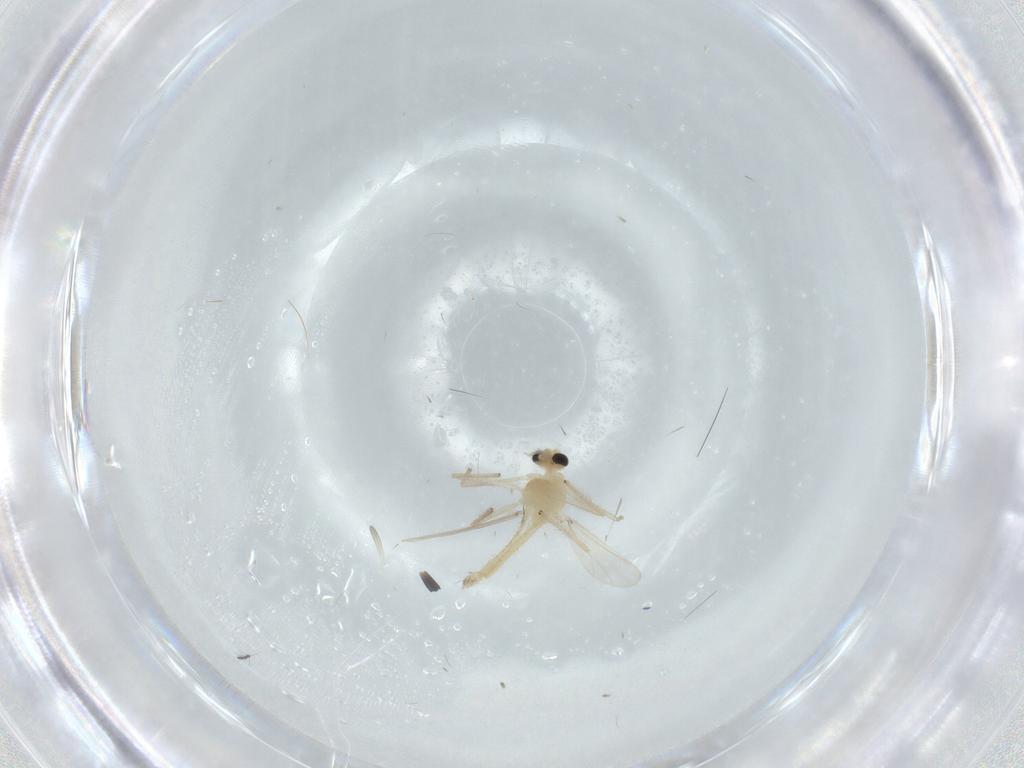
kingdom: Animalia
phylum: Arthropoda
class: Insecta
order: Diptera
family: Chironomidae
